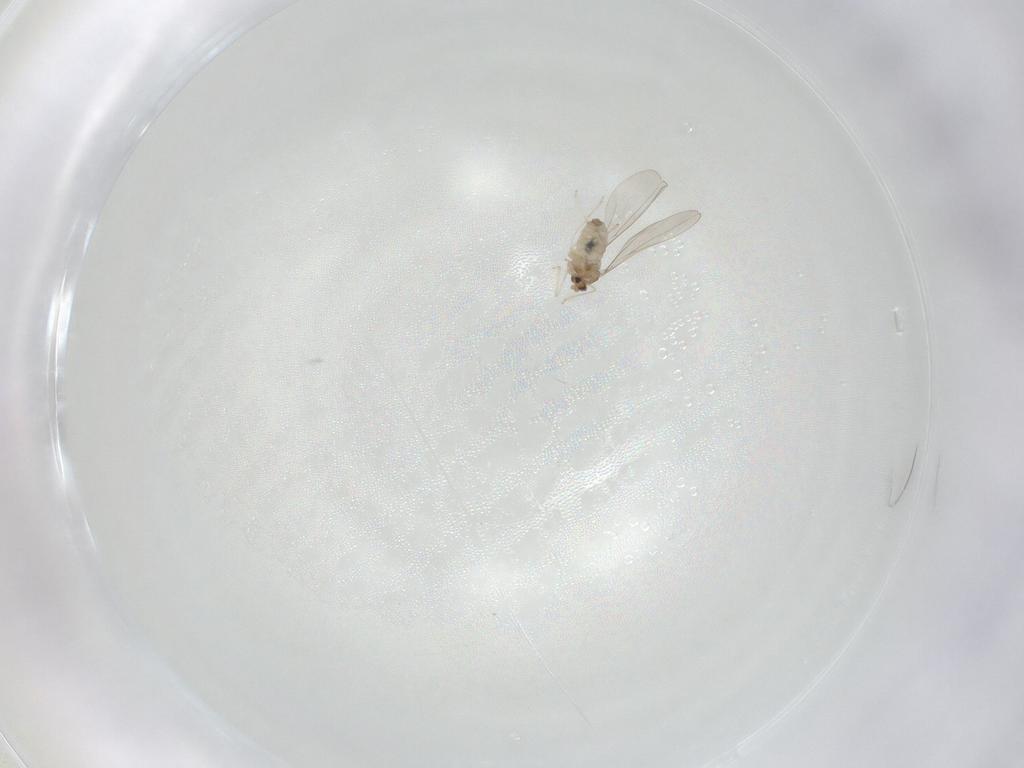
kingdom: Animalia
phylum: Arthropoda
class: Insecta
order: Diptera
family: Cecidomyiidae
